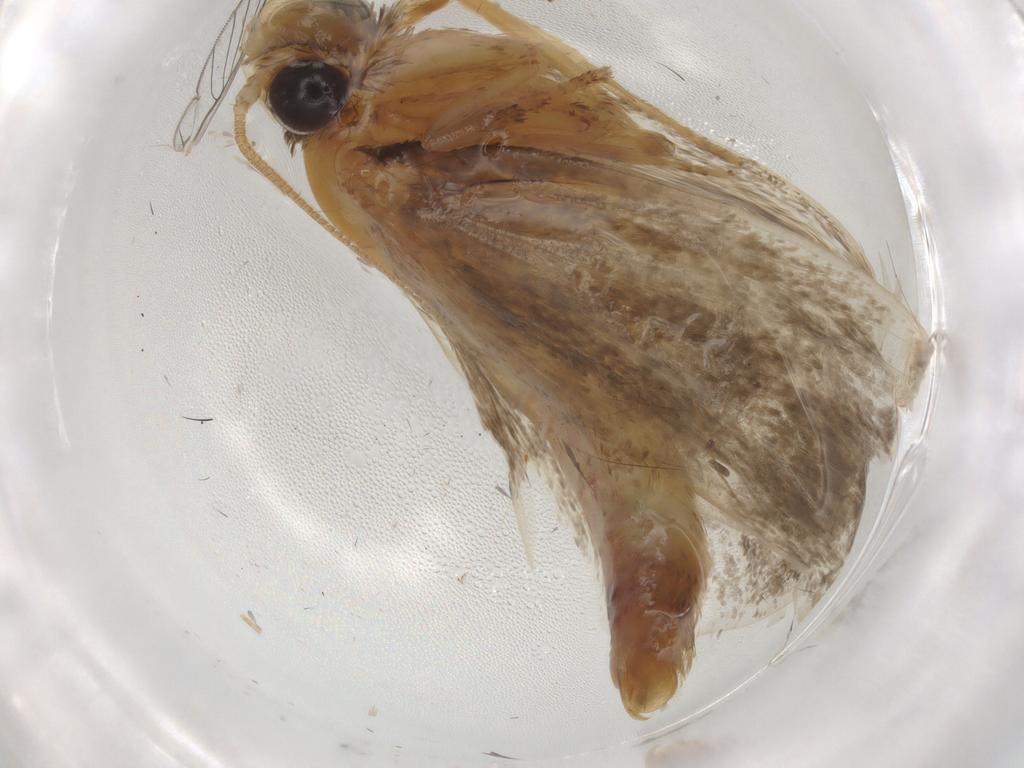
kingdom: Animalia
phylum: Arthropoda
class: Insecta
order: Lepidoptera
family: Tineidae
